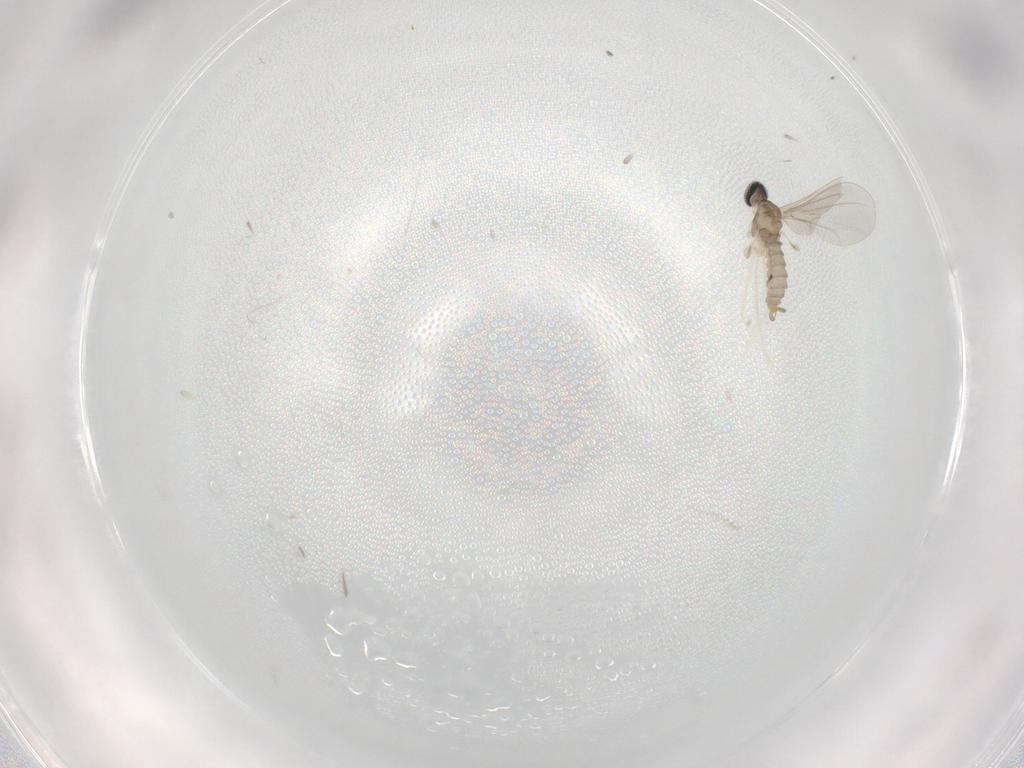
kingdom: Animalia
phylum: Arthropoda
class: Insecta
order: Diptera
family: Cecidomyiidae
